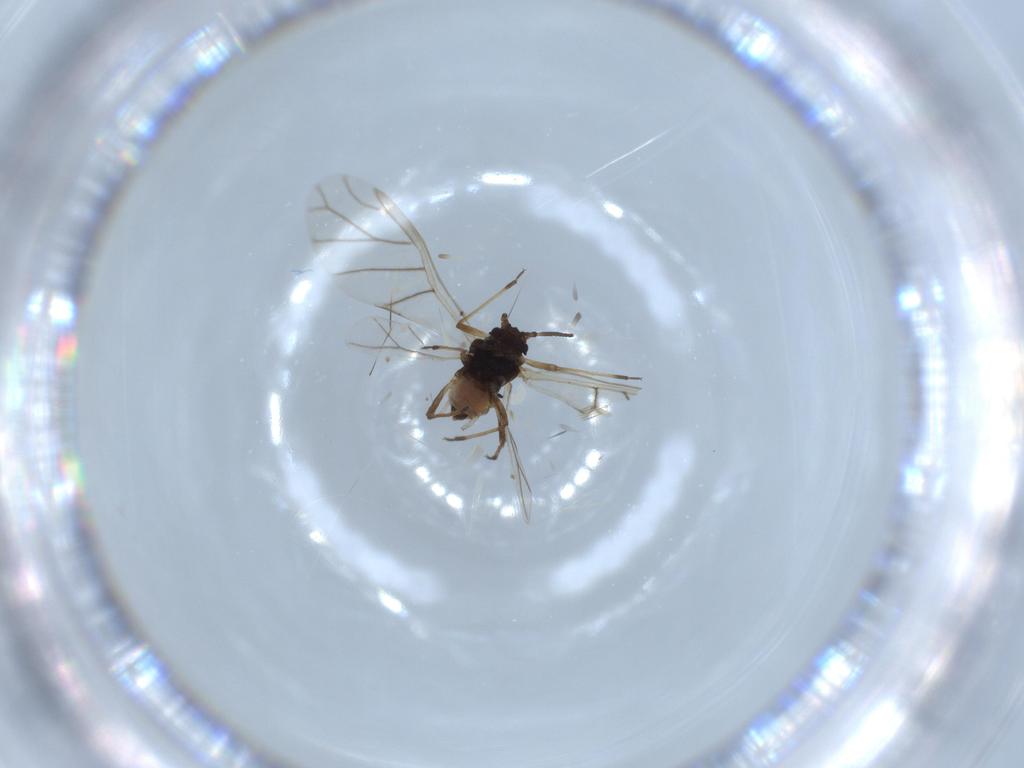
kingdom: Animalia
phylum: Arthropoda
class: Insecta
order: Hemiptera
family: Aphididae
